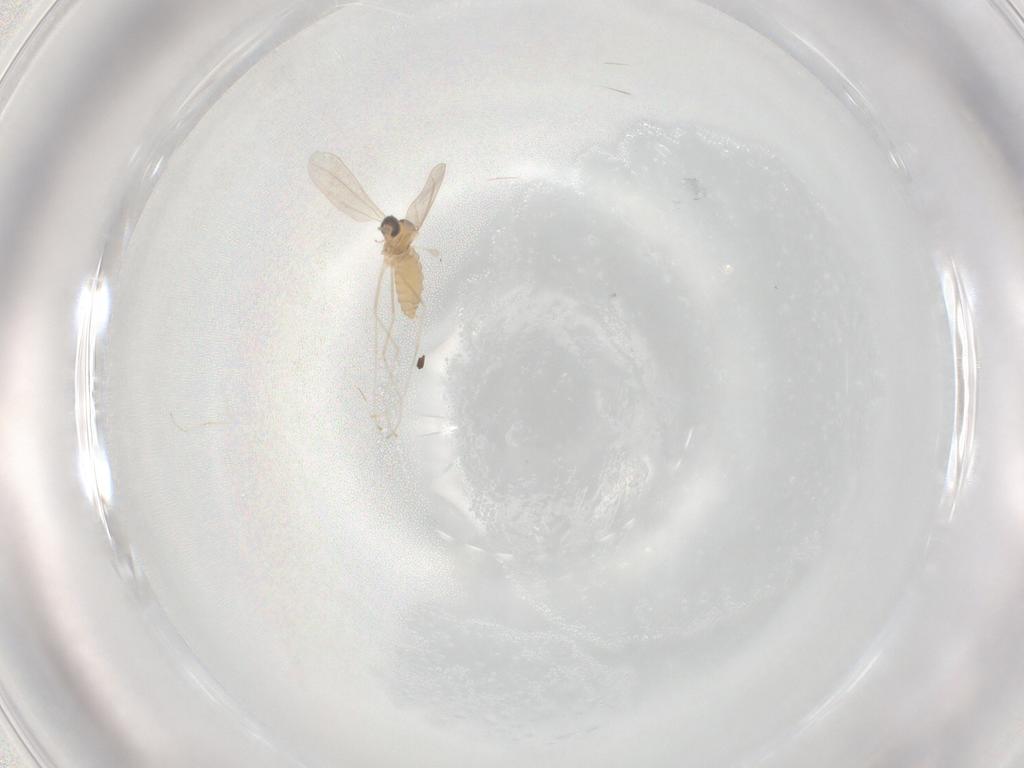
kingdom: Animalia
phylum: Arthropoda
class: Insecta
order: Diptera
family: Cecidomyiidae
